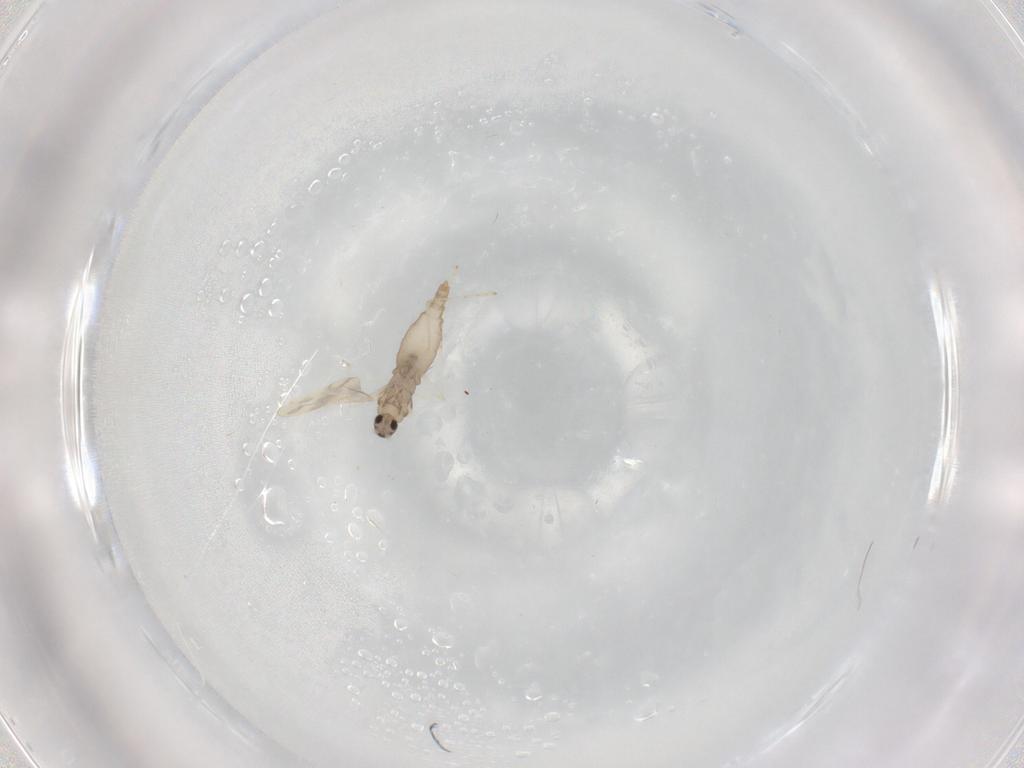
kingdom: Animalia
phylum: Arthropoda
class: Insecta
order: Diptera
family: Cecidomyiidae
